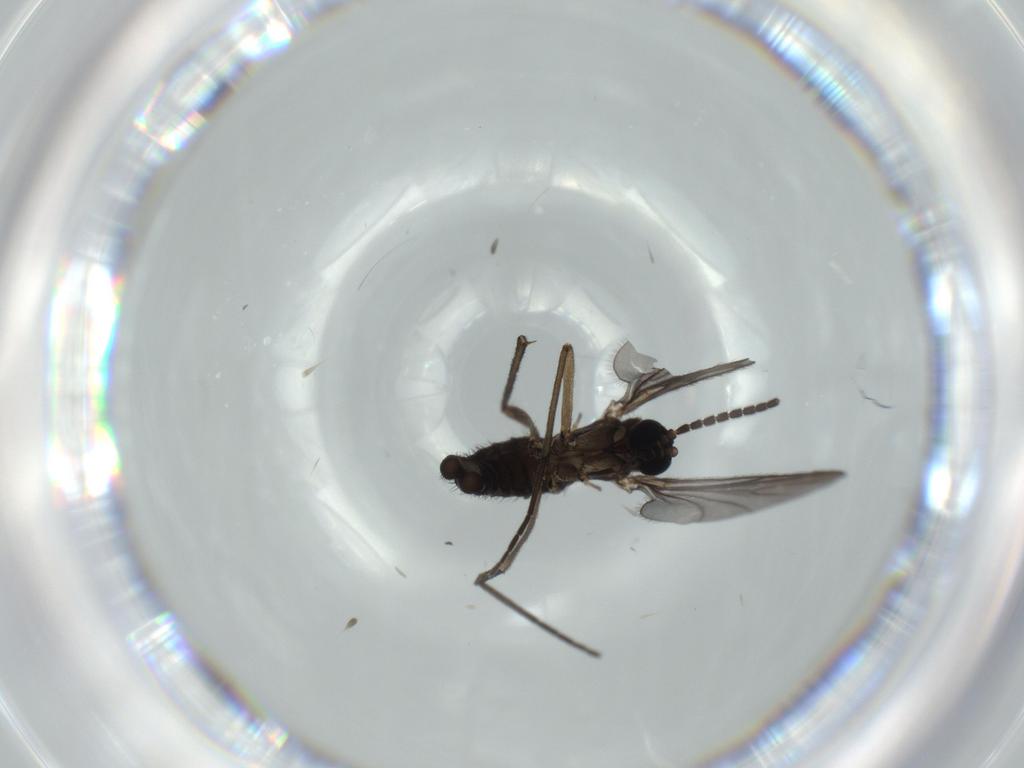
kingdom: Animalia
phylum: Arthropoda
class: Insecta
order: Diptera
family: Sciaridae
